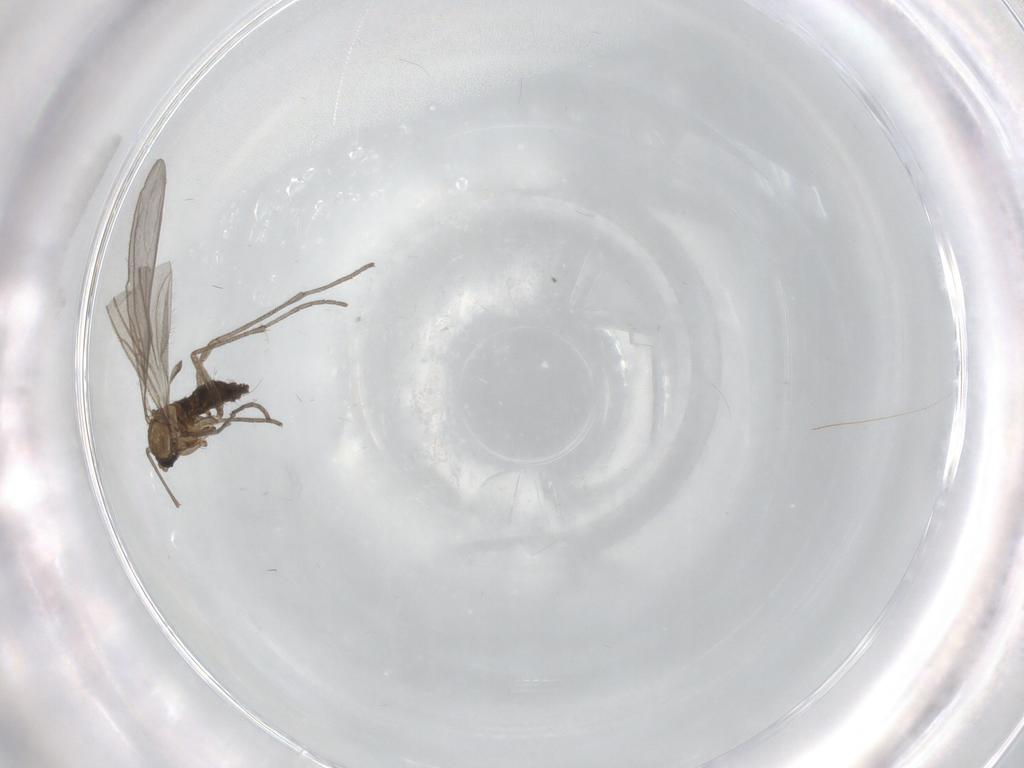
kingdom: Animalia
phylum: Arthropoda
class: Insecta
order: Diptera
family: Sciaridae
